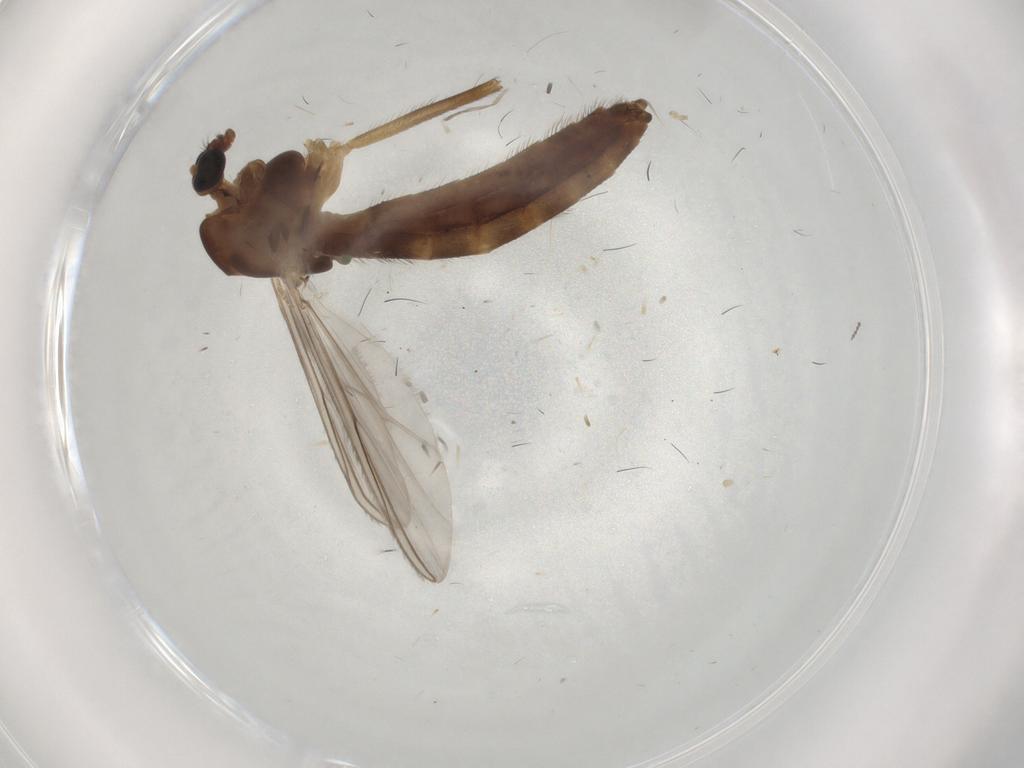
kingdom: Animalia
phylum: Arthropoda
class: Insecta
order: Diptera
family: Chironomidae
